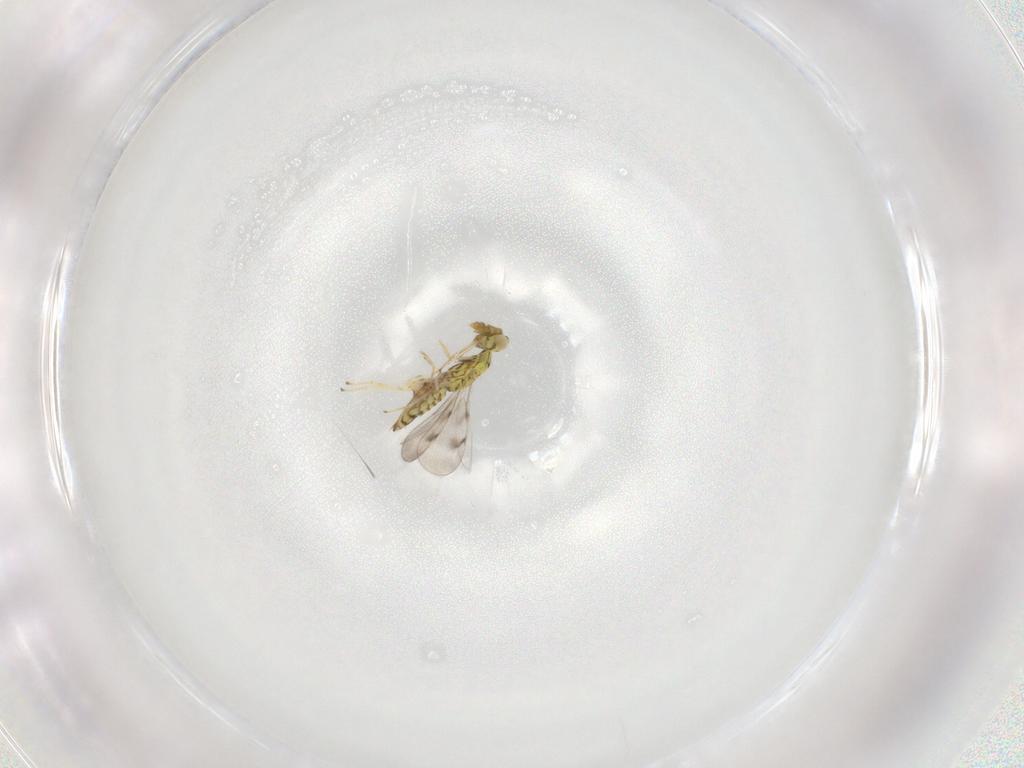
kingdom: Animalia
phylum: Arthropoda
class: Insecta
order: Hymenoptera
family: Eulophidae
